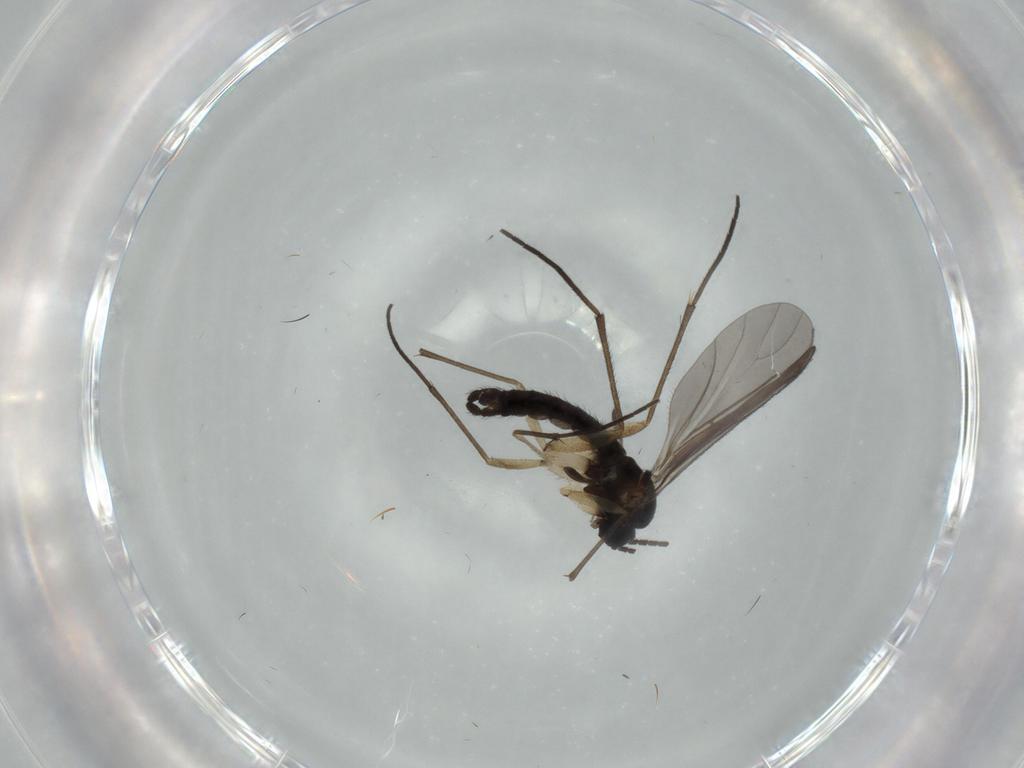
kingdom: Animalia
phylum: Arthropoda
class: Insecta
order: Diptera
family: Sciaridae
